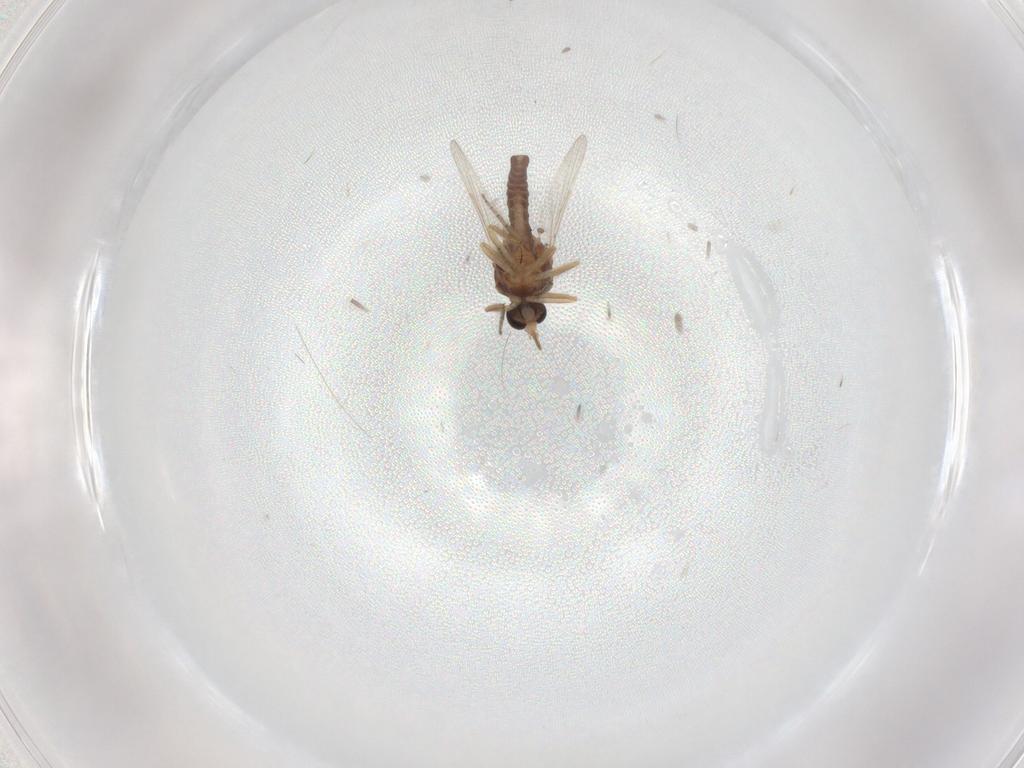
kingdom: Animalia
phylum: Arthropoda
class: Insecta
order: Diptera
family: Ceratopogonidae
